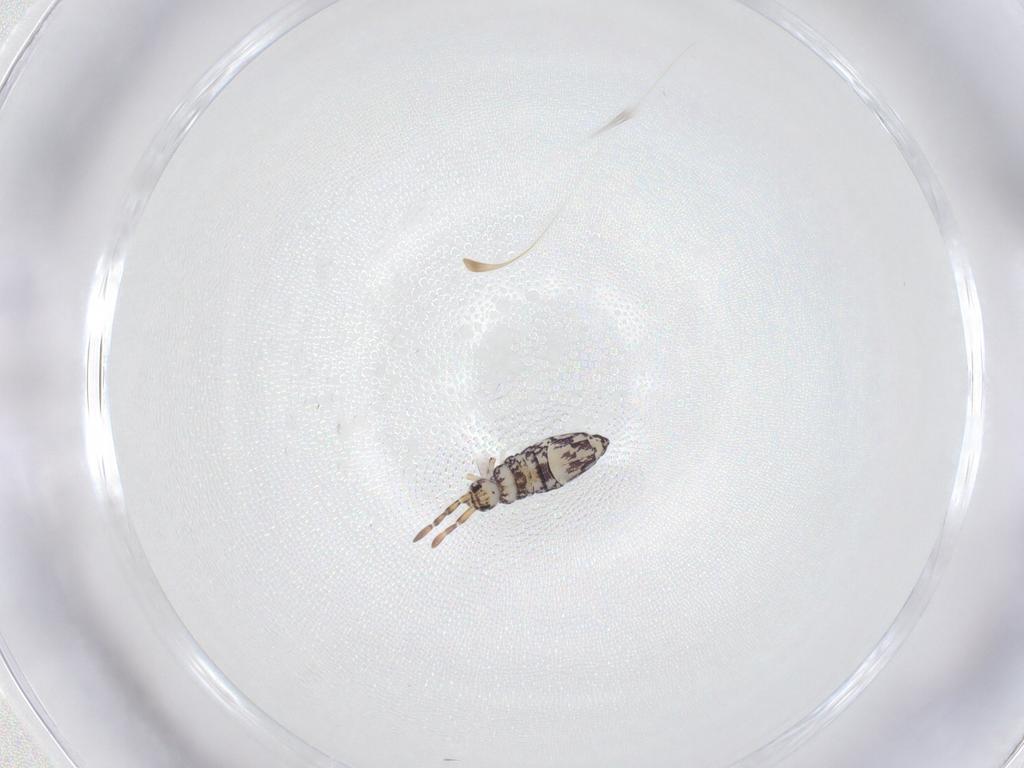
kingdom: Animalia
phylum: Arthropoda
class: Collembola
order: Entomobryomorpha
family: Entomobryidae
